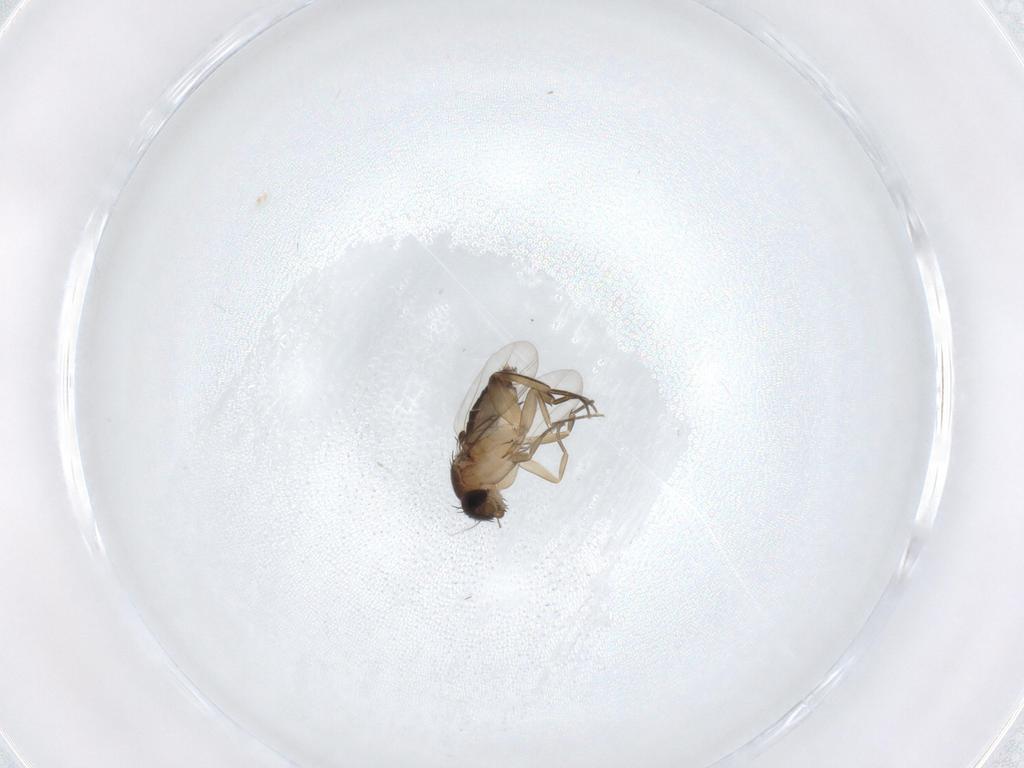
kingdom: Animalia
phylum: Arthropoda
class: Insecta
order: Diptera
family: Phoridae
